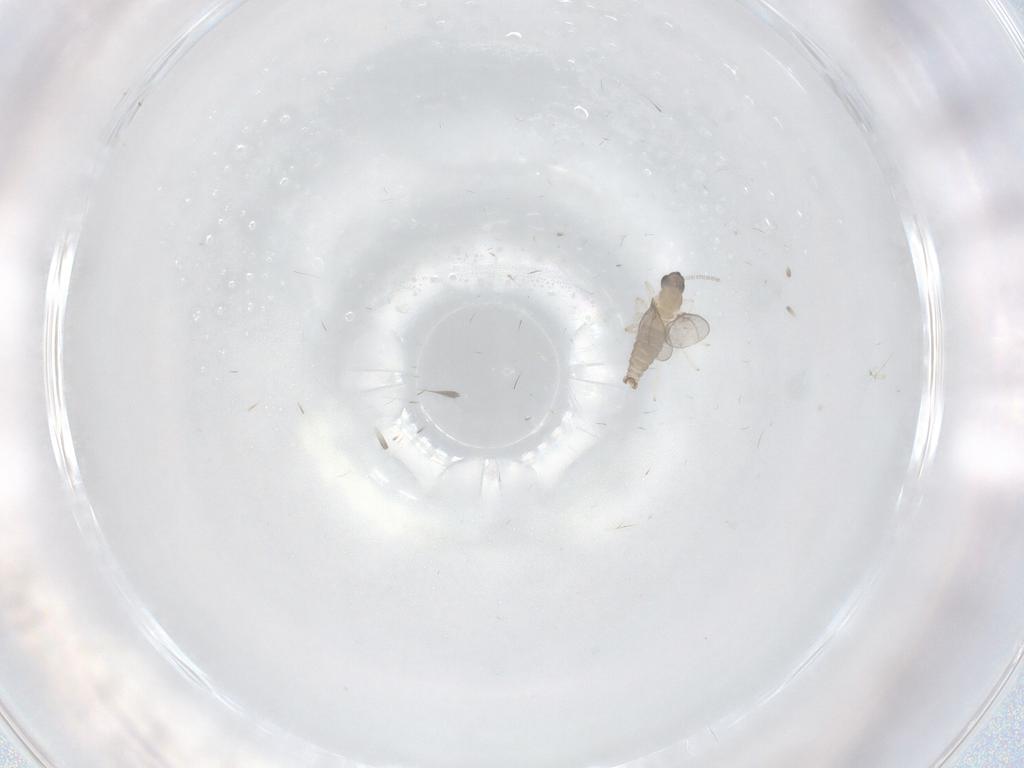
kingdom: Animalia
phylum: Arthropoda
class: Insecta
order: Diptera
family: Cecidomyiidae
